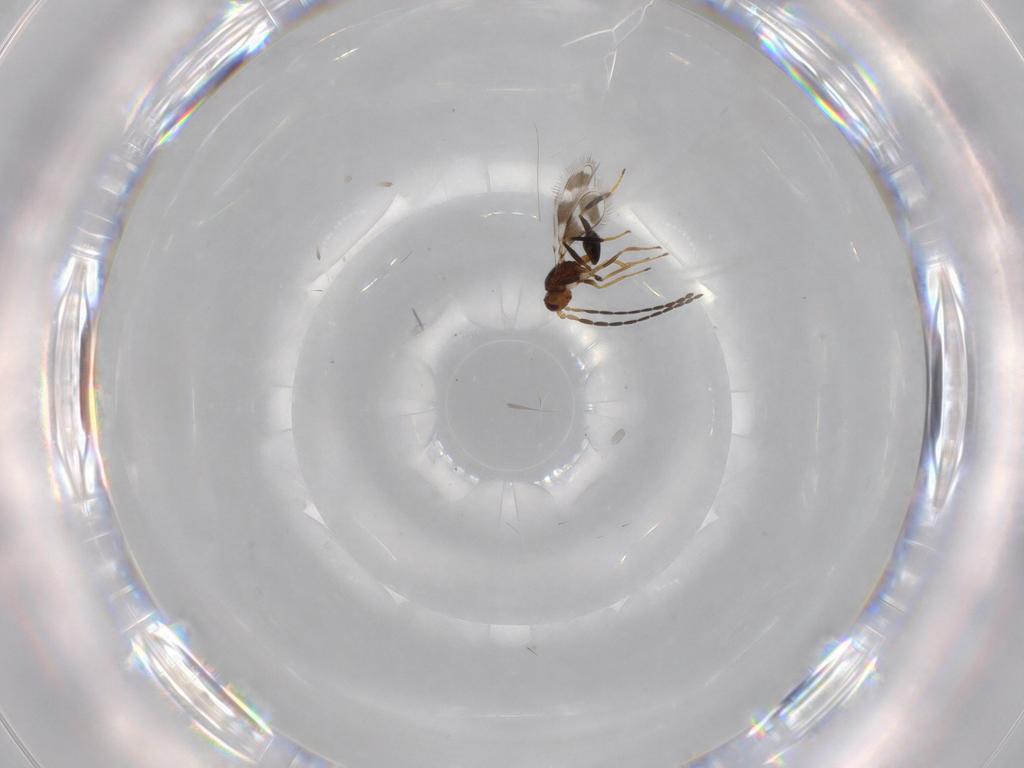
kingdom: Animalia
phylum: Arthropoda
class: Insecta
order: Hymenoptera
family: Mymaridae
